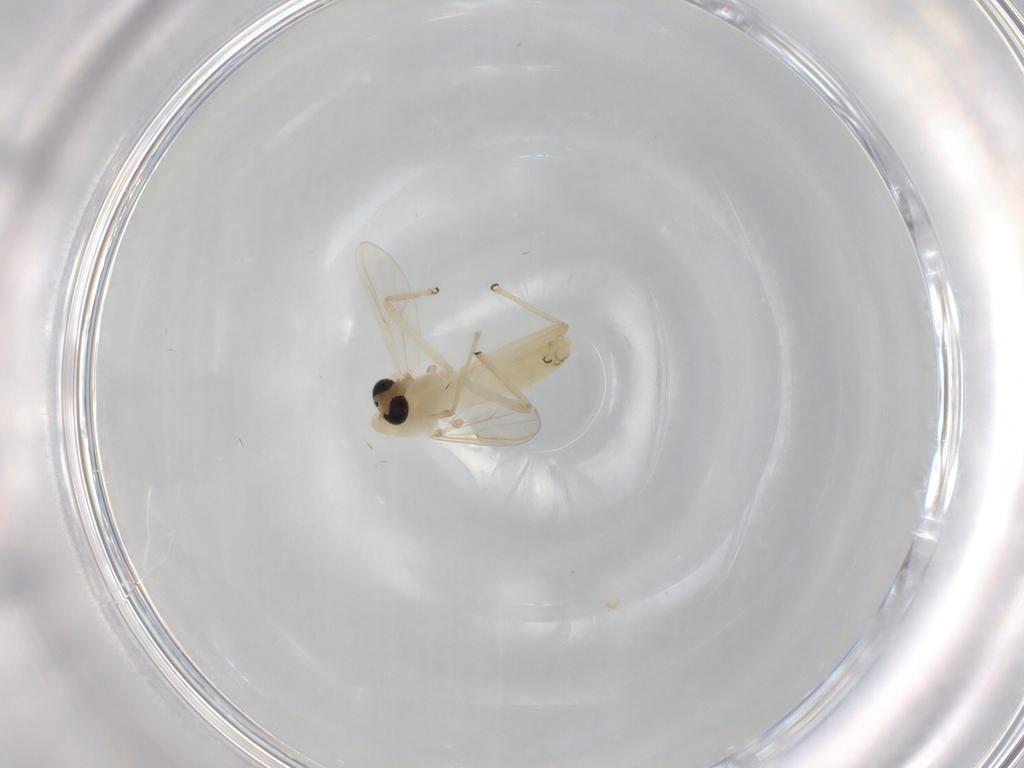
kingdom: Animalia
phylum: Arthropoda
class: Insecta
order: Diptera
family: Chironomidae
